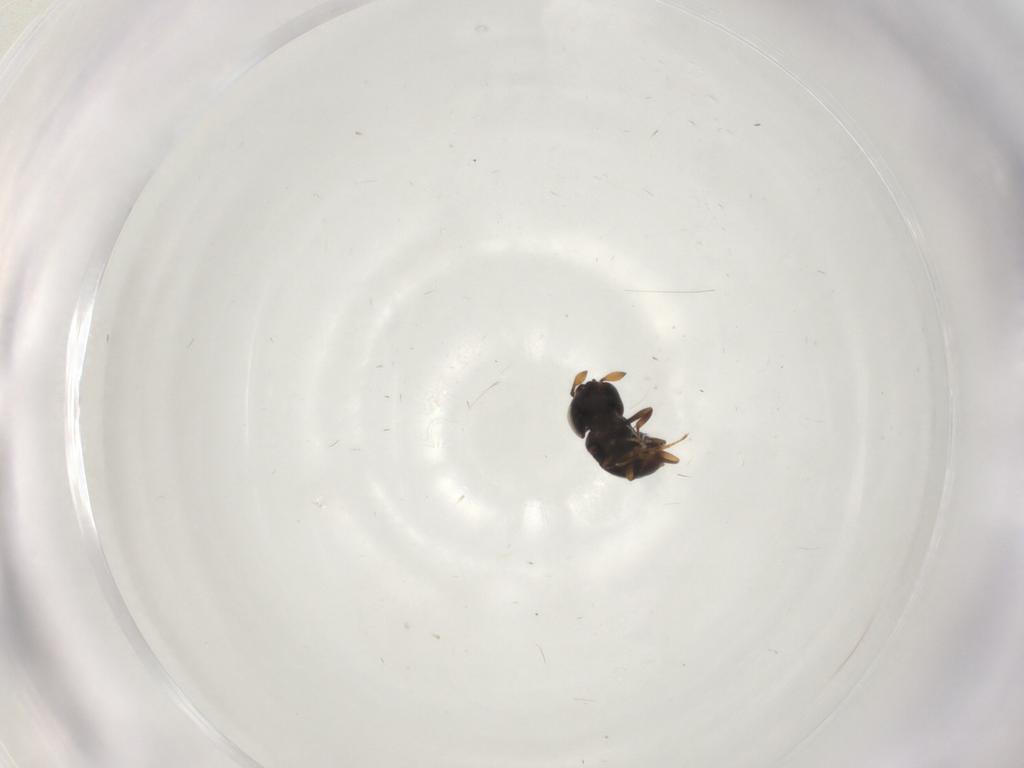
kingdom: Animalia
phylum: Arthropoda
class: Insecta
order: Hymenoptera
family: Scelionidae
